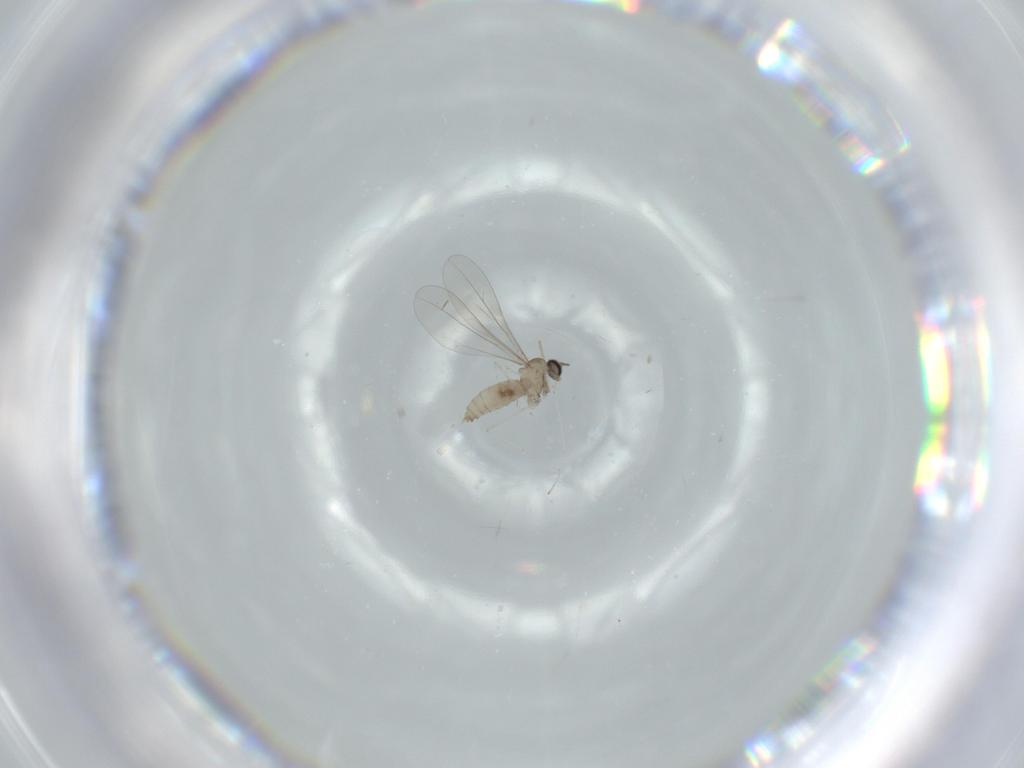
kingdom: Animalia
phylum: Arthropoda
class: Insecta
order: Diptera
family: Cecidomyiidae
